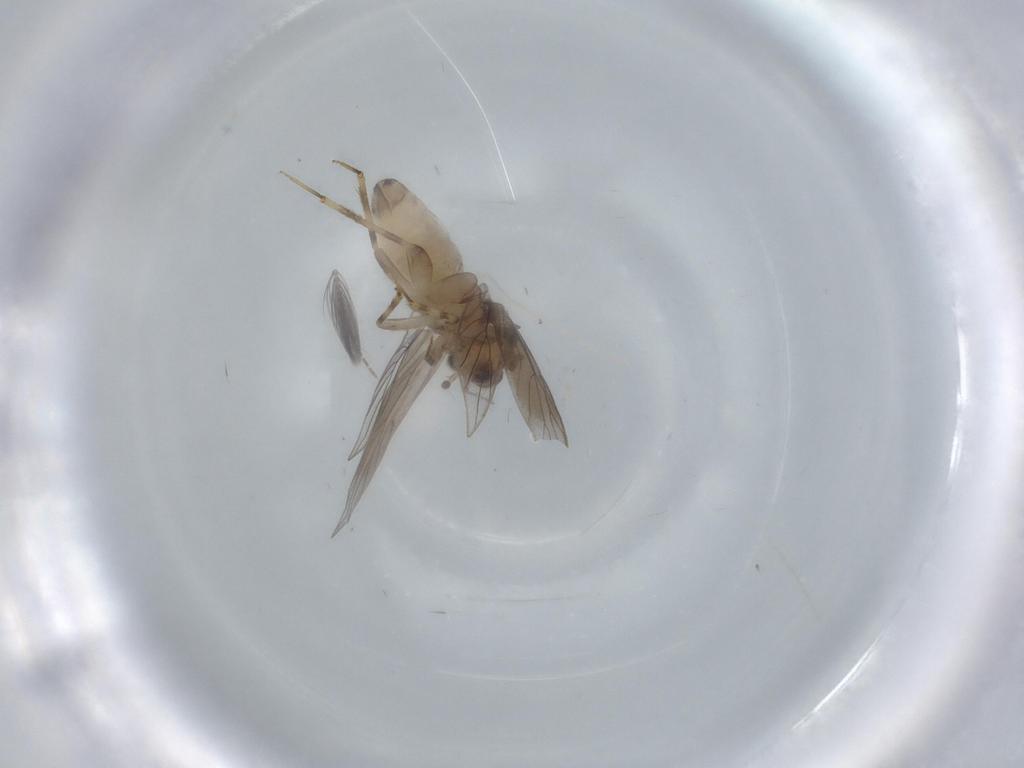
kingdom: Animalia
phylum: Arthropoda
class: Insecta
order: Psocodea
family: Lepidopsocidae
